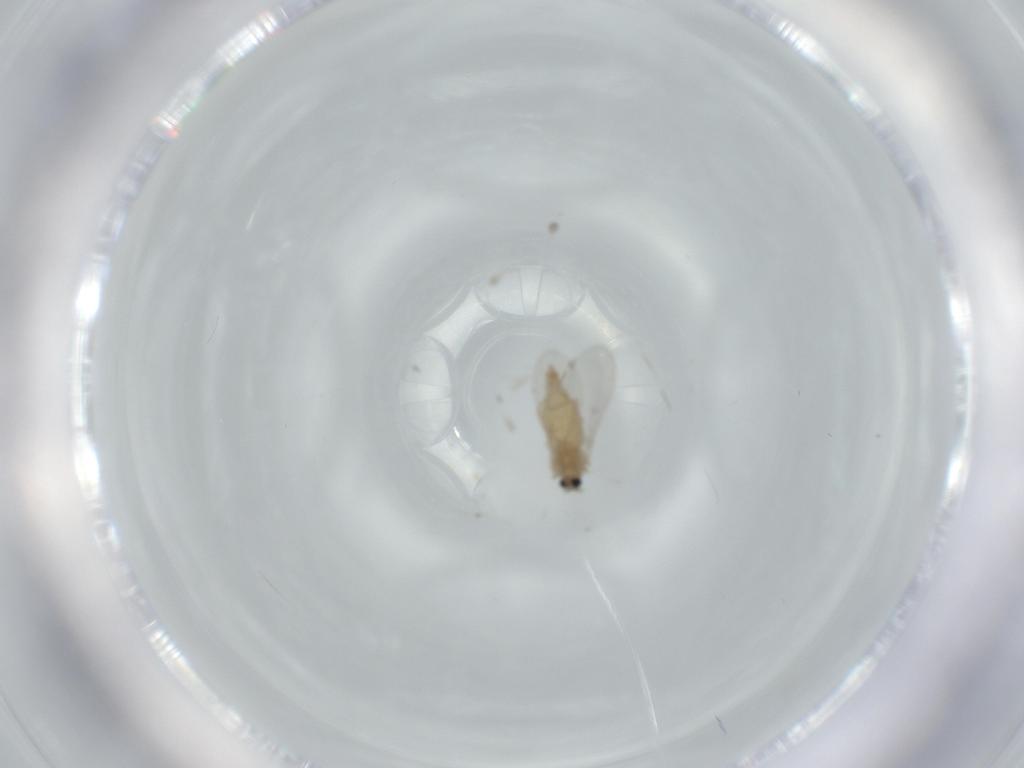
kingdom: Animalia
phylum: Arthropoda
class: Insecta
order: Diptera
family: Cecidomyiidae
